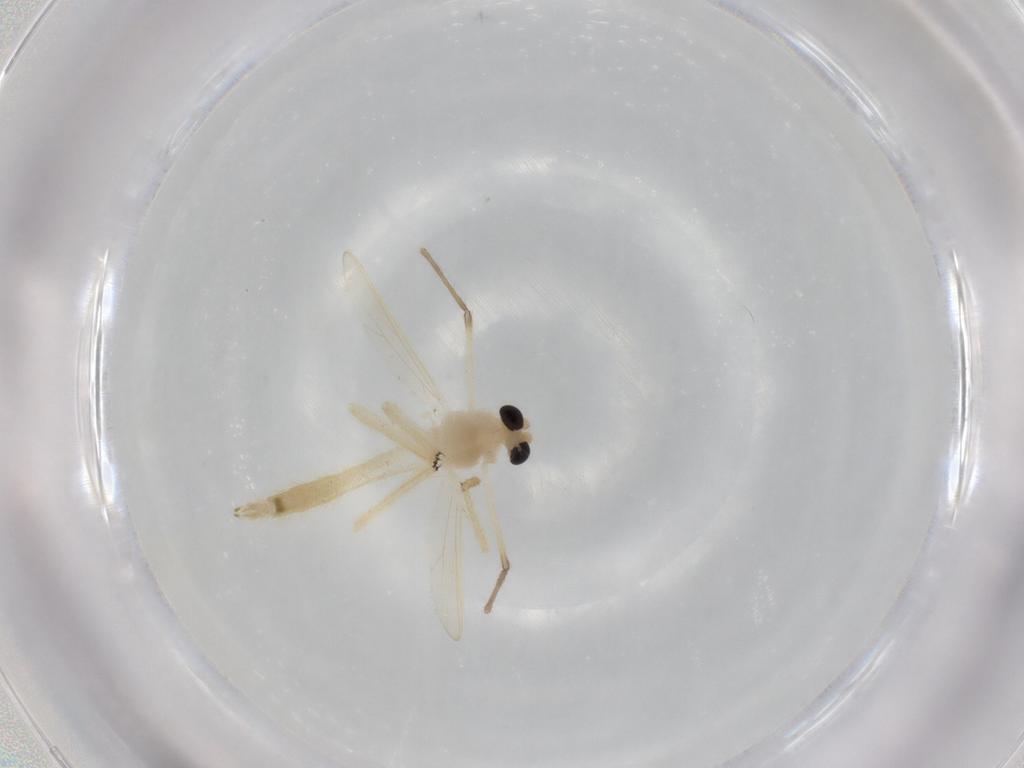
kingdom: Animalia
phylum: Arthropoda
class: Insecta
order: Diptera
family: Chironomidae
